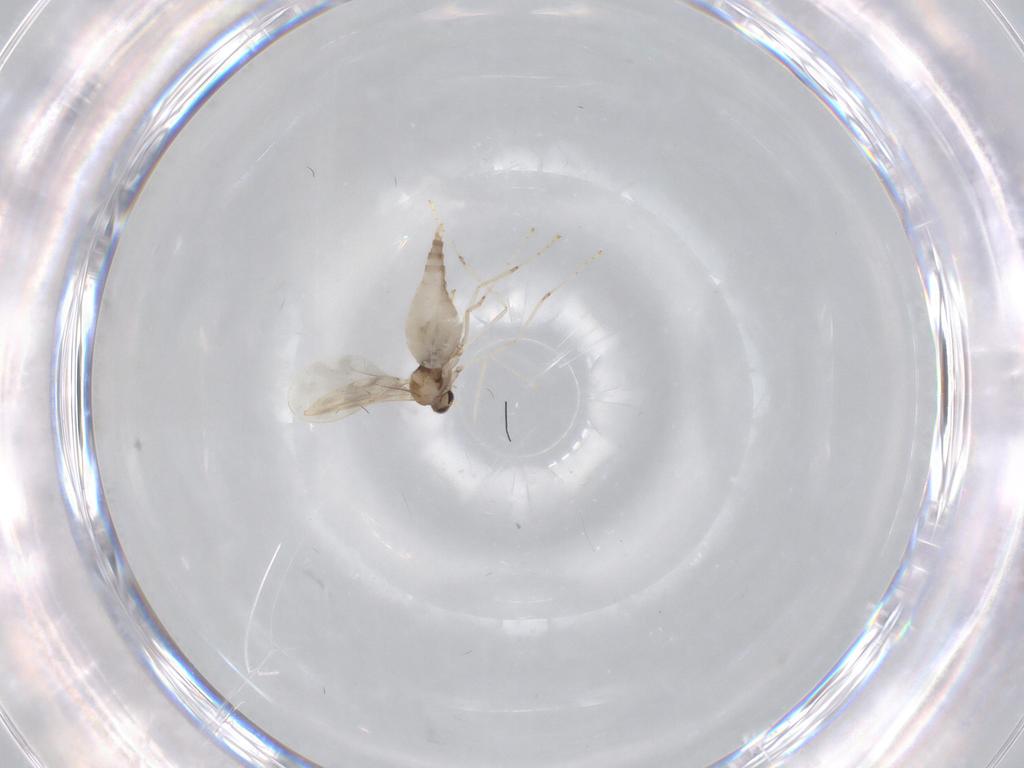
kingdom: Animalia
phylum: Arthropoda
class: Insecta
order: Diptera
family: Cecidomyiidae
